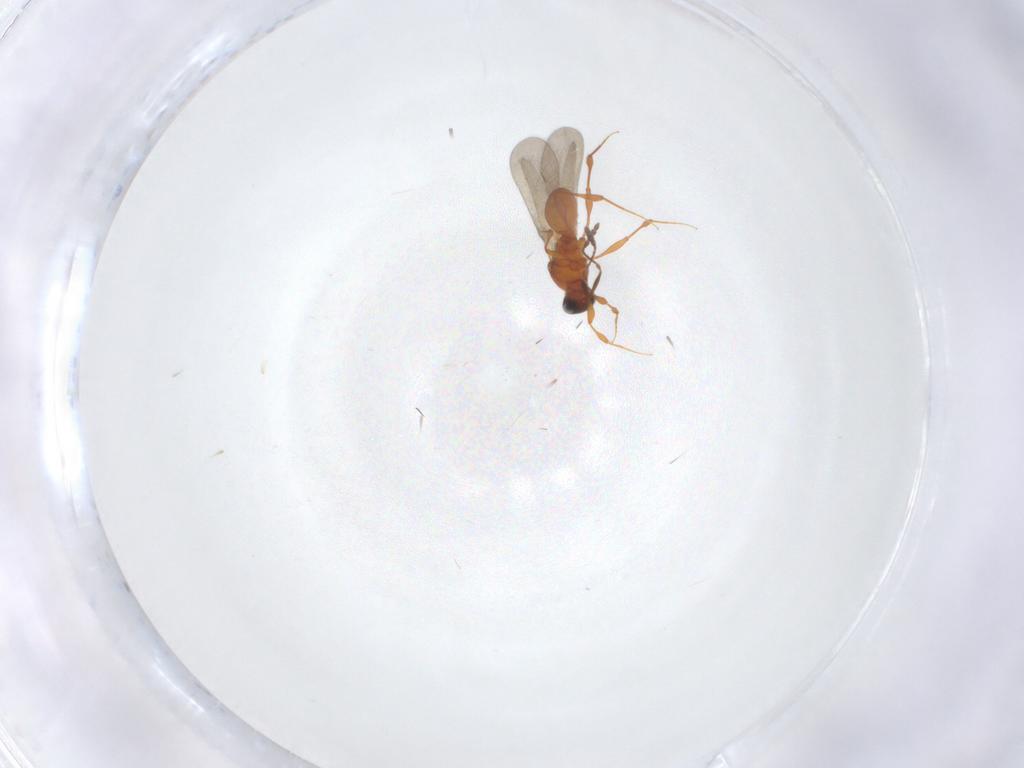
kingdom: Animalia
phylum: Arthropoda
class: Insecta
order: Hymenoptera
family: Platygastridae
